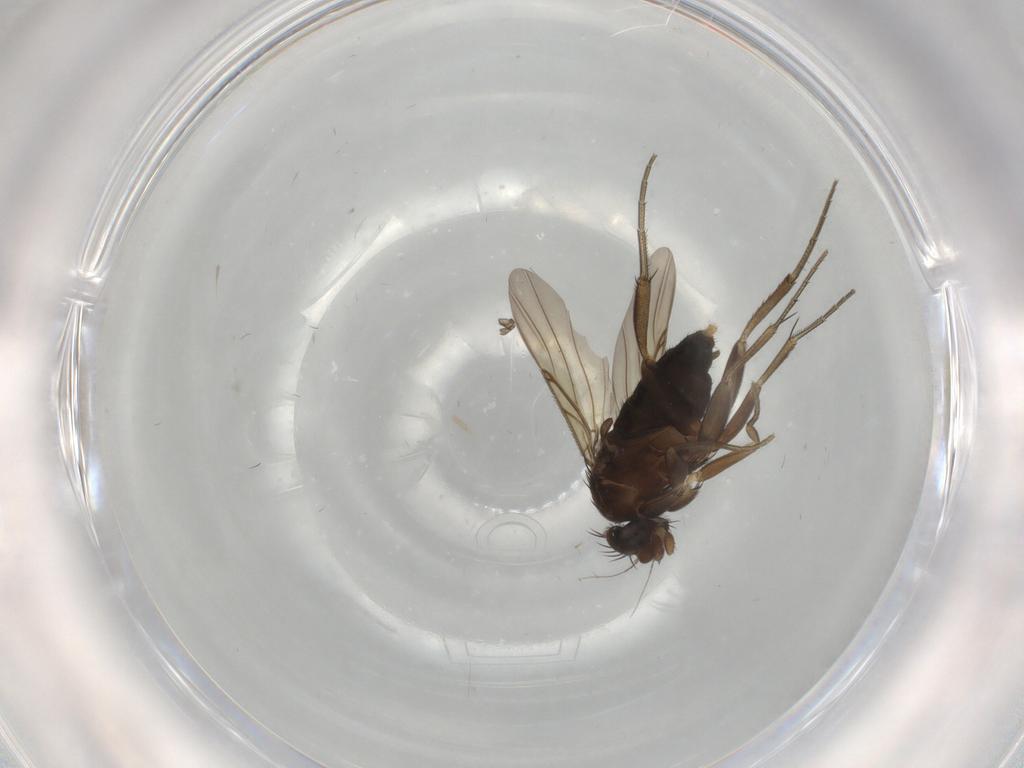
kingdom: Animalia
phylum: Arthropoda
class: Insecta
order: Diptera
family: Phoridae
